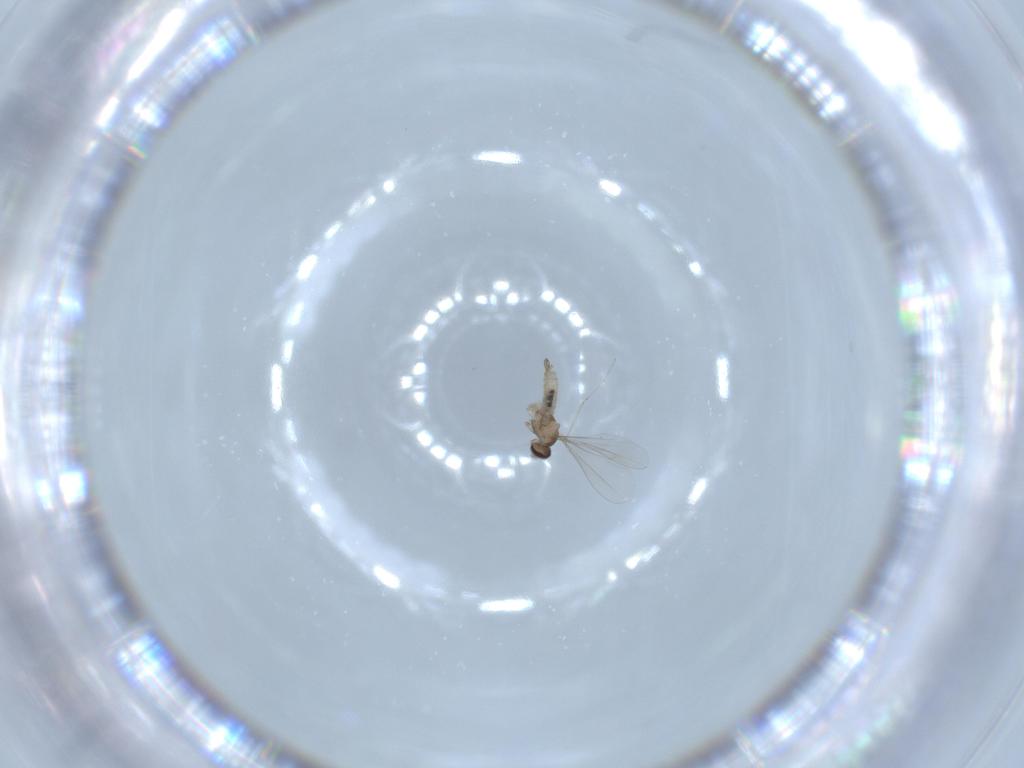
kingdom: Animalia
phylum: Arthropoda
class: Insecta
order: Diptera
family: Cecidomyiidae
